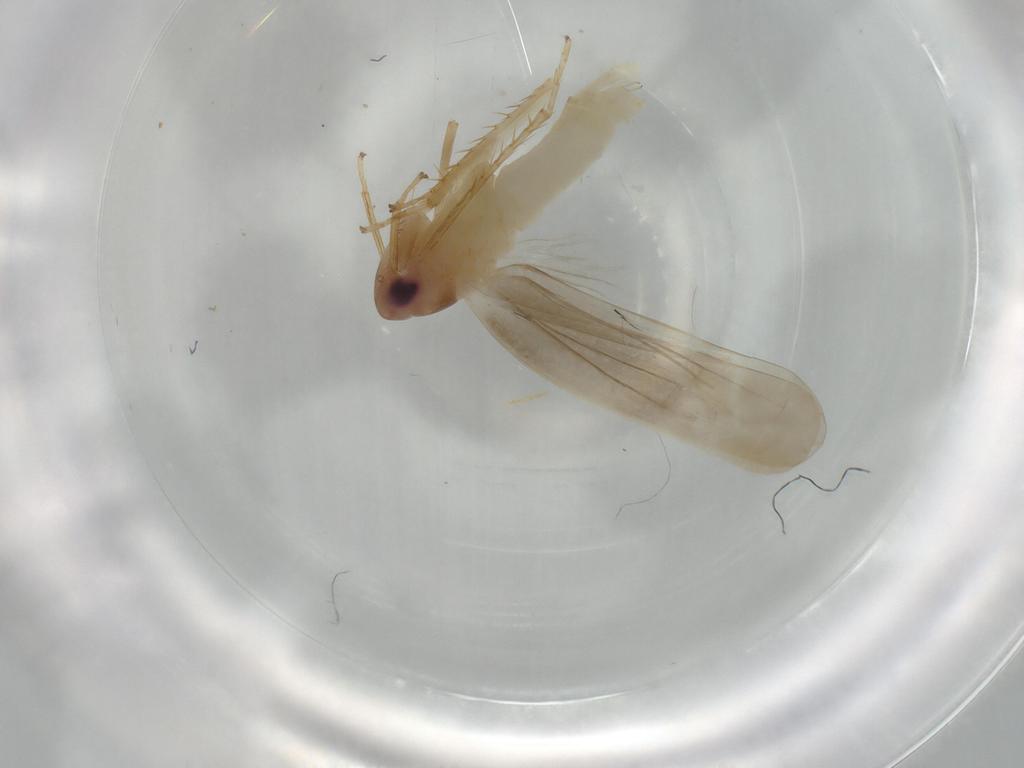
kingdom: Animalia
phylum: Arthropoda
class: Insecta
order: Hemiptera
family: Cicadellidae
